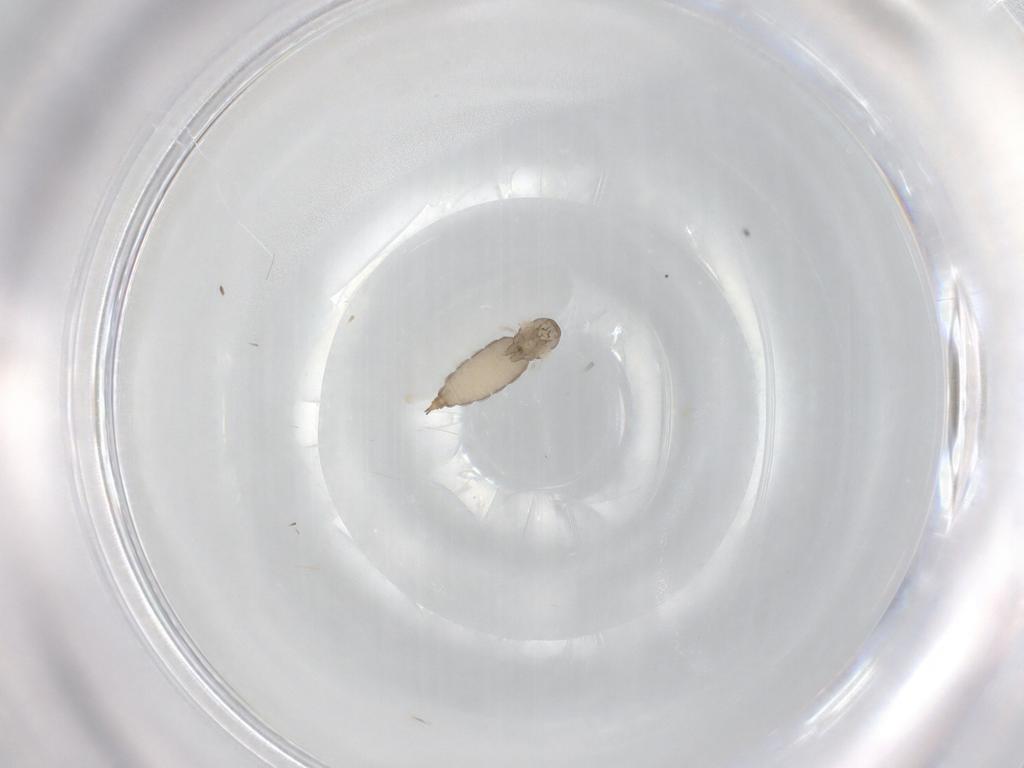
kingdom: Animalia
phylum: Arthropoda
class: Insecta
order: Diptera
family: Cecidomyiidae
